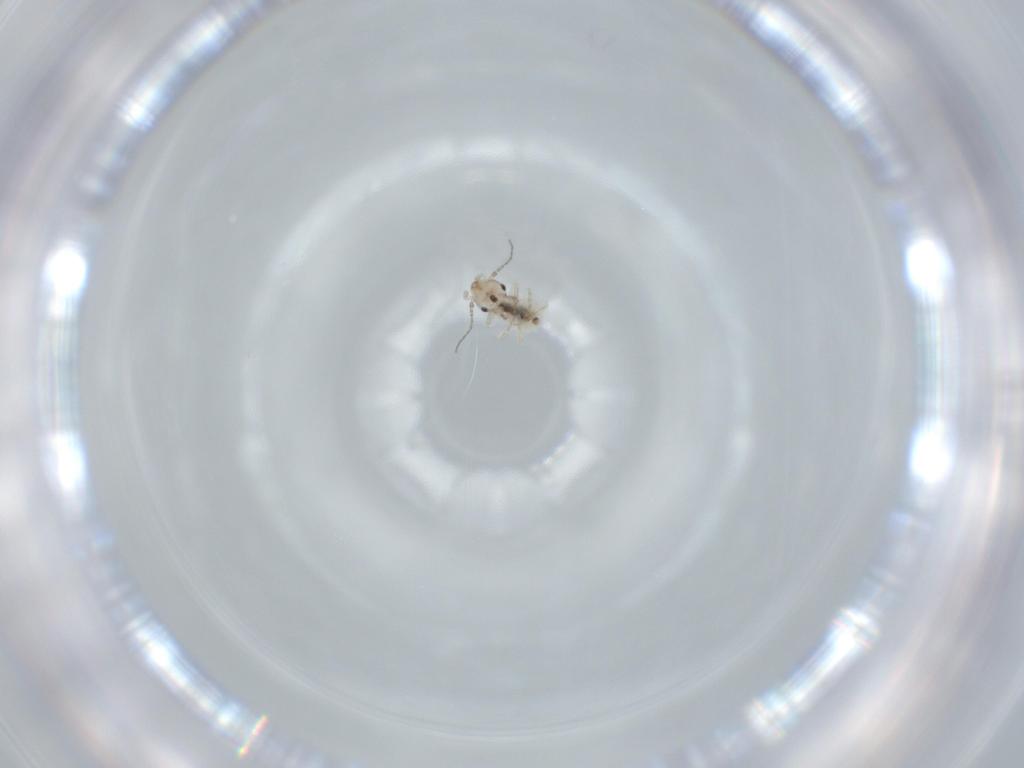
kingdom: Animalia
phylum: Arthropoda
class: Insecta
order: Psocodea
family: Lepidopsocidae
